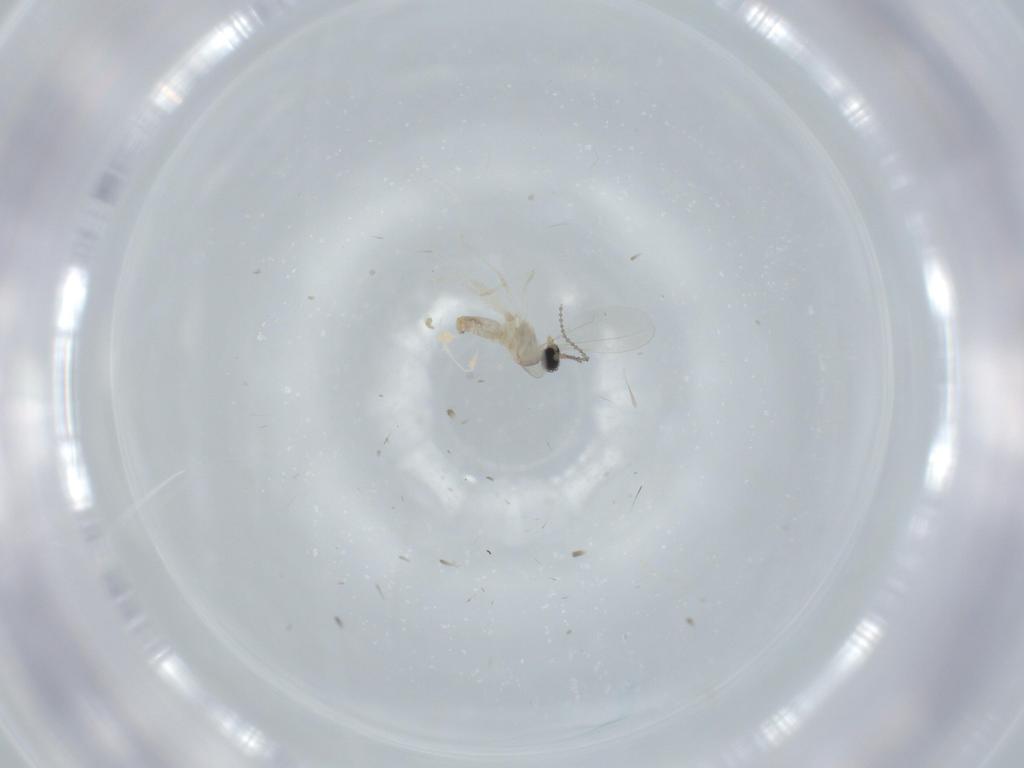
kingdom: Animalia
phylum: Arthropoda
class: Insecta
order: Diptera
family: Cecidomyiidae
